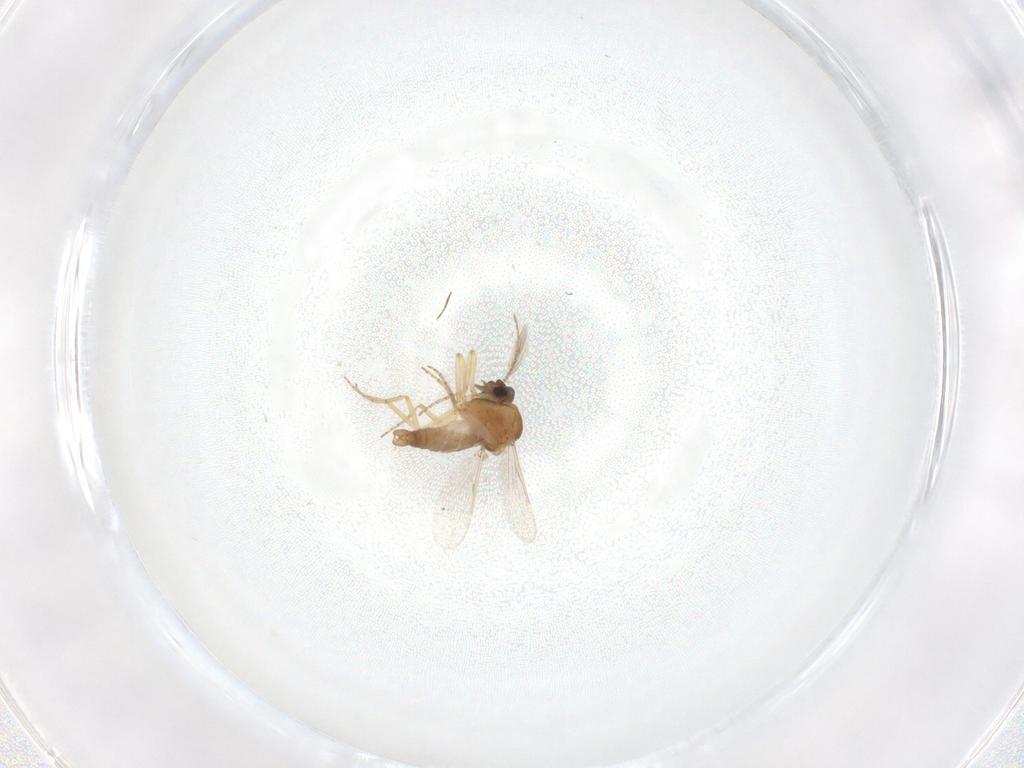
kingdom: Animalia
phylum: Arthropoda
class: Insecta
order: Diptera
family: Ceratopogonidae
